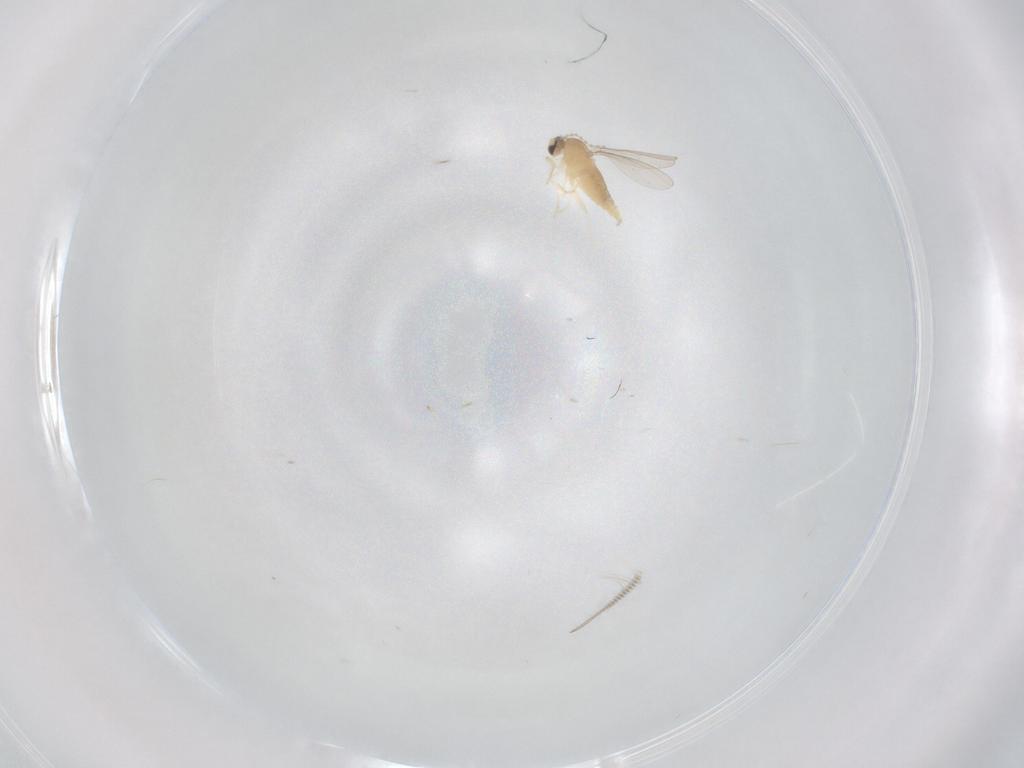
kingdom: Animalia
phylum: Arthropoda
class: Insecta
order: Diptera
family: Cecidomyiidae
